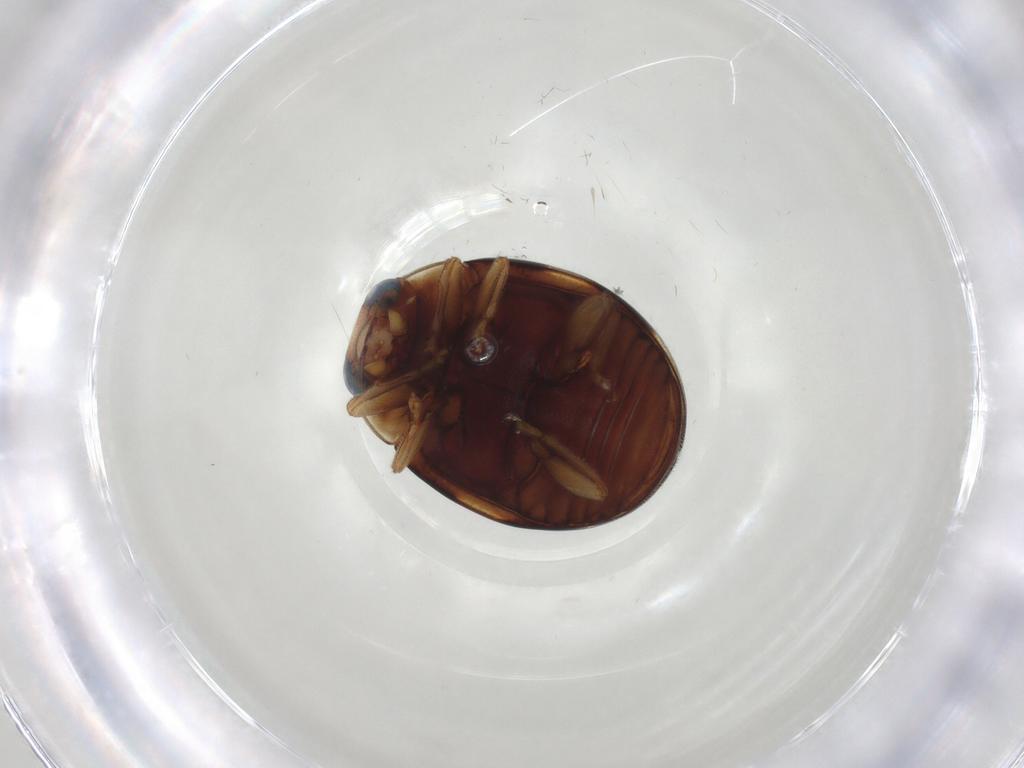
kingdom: Animalia
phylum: Arthropoda
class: Insecta
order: Coleoptera
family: Coccinellidae
